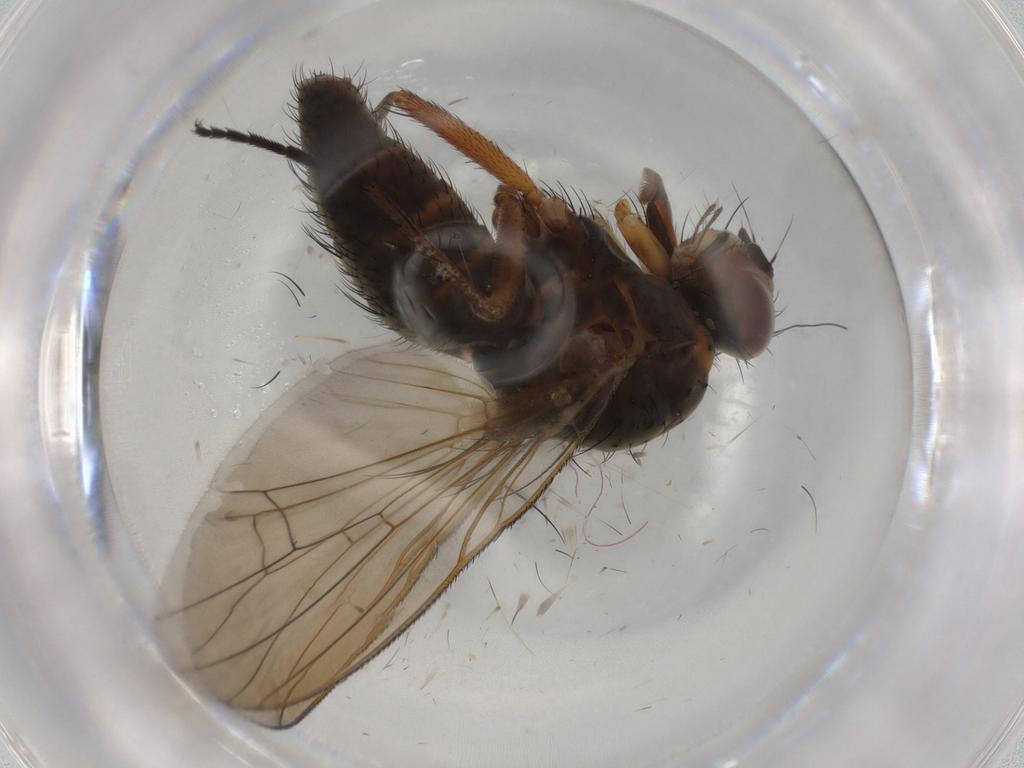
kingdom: Animalia
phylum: Arthropoda
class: Insecta
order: Diptera
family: Anthomyiidae
